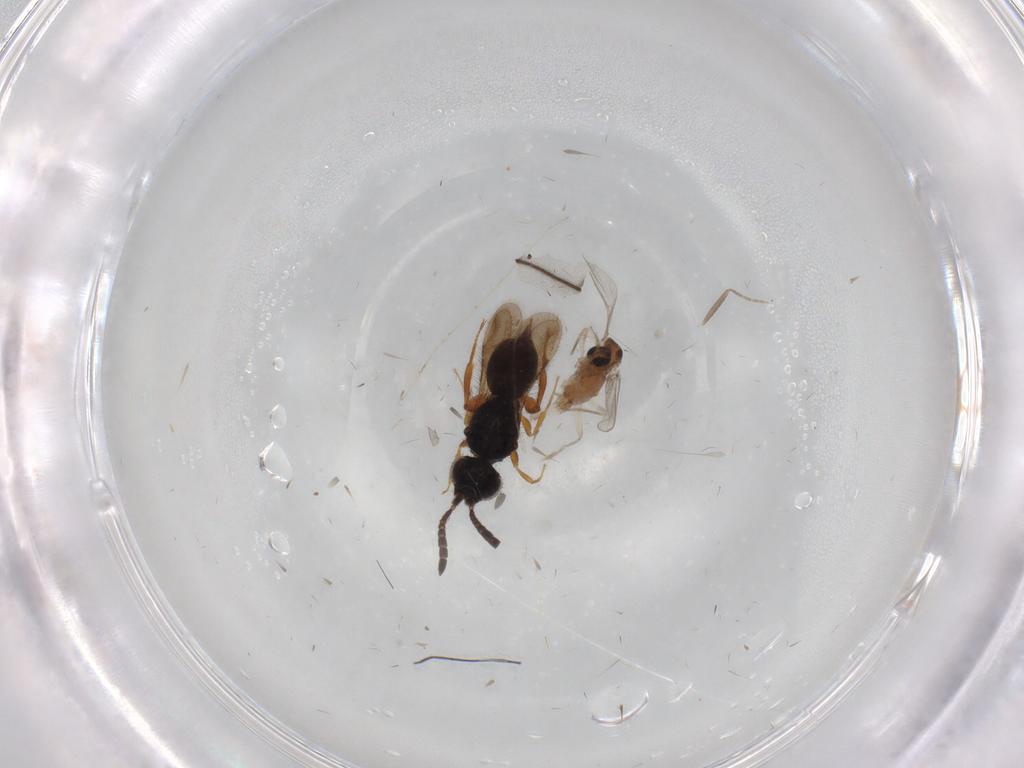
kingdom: Animalia
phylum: Arthropoda
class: Insecta
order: Diptera
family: Chironomidae
